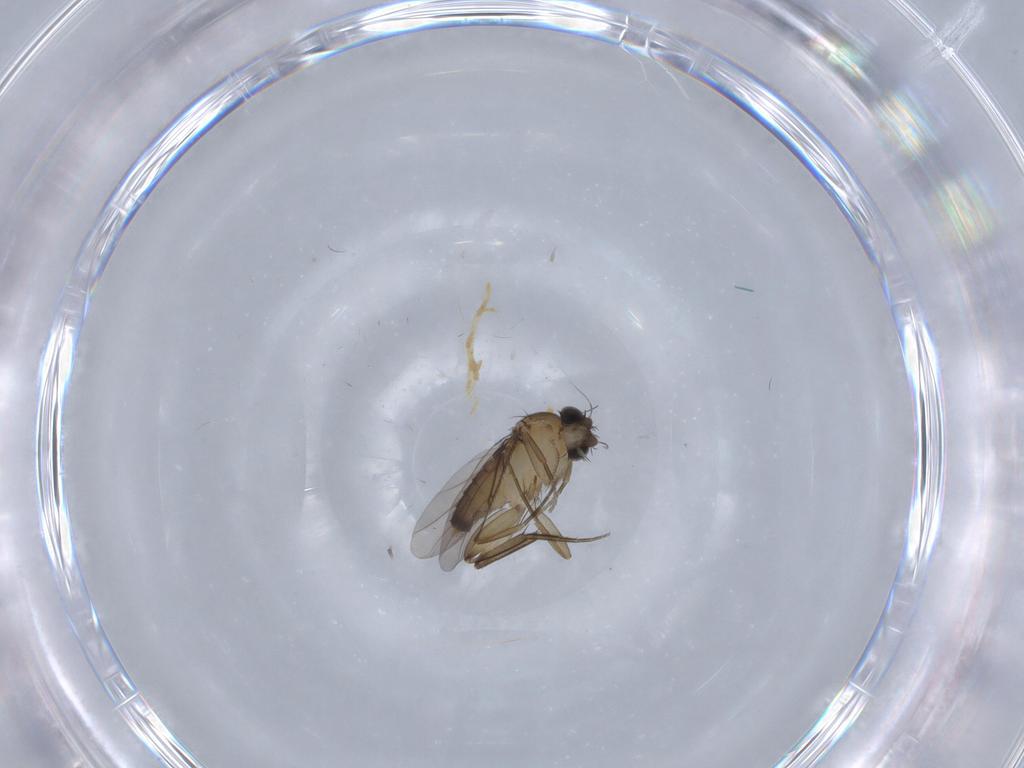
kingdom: Animalia
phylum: Arthropoda
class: Insecta
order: Diptera
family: Phoridae
